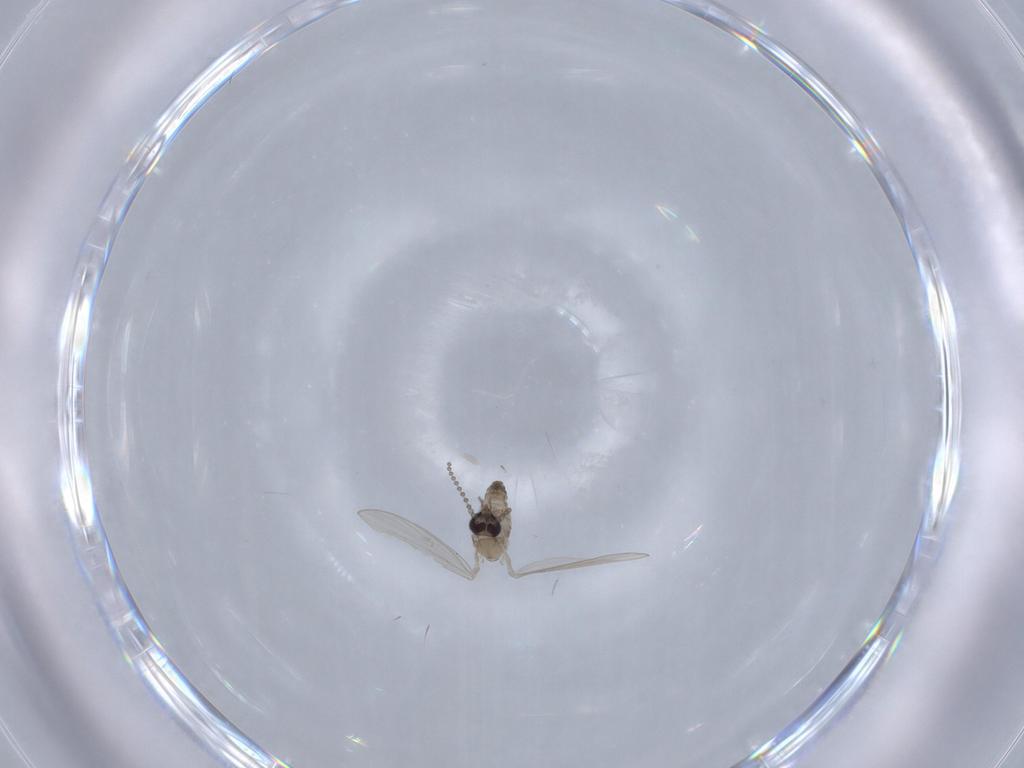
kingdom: Animalia
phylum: Arthropoda
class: Insecta
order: Diptera
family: Psychodidae
